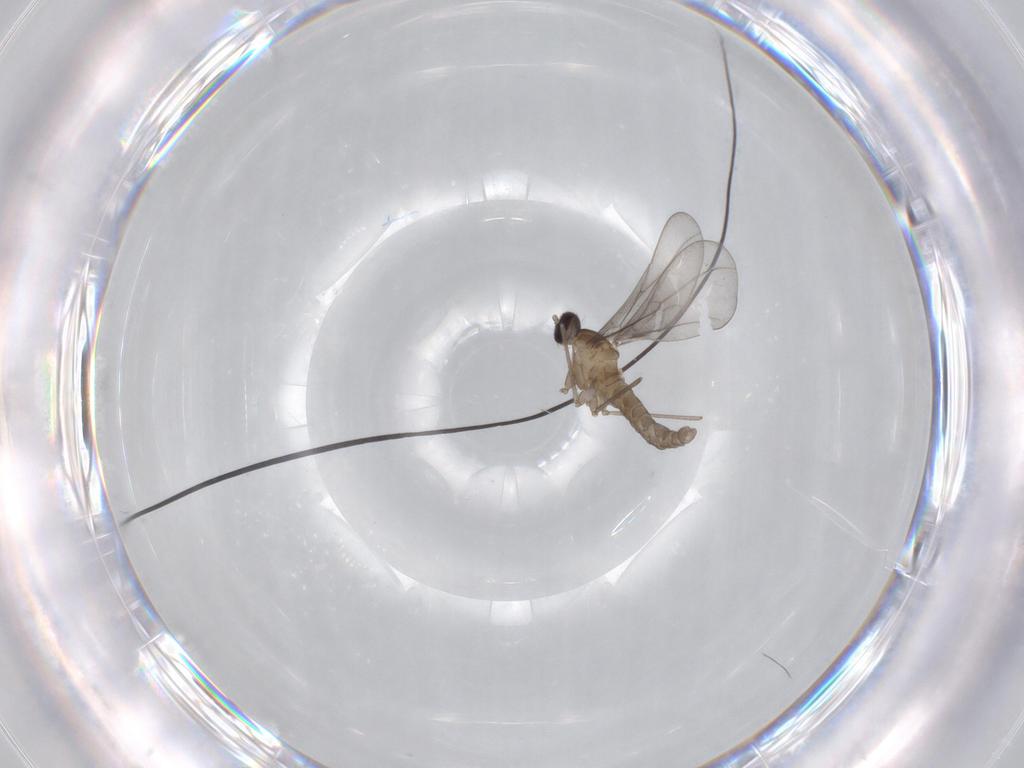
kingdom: Animalia
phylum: Arthropoda
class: Insecta
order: Diptera
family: Cecidomyiidae
